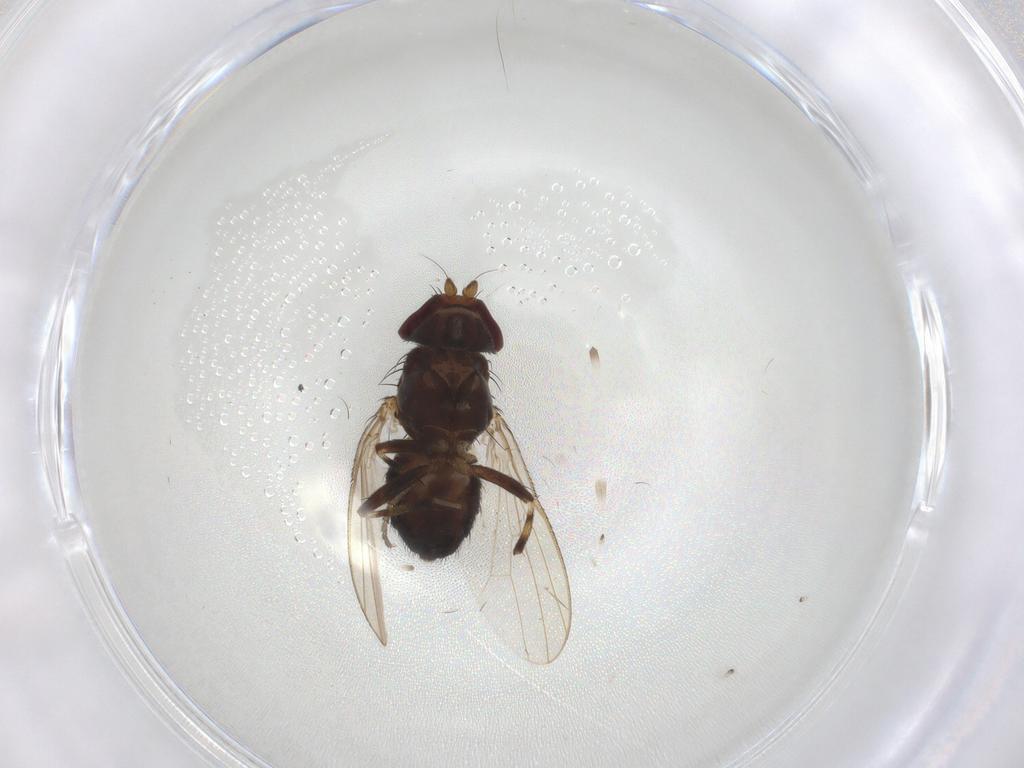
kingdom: Animalia
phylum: Arthropoda
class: Insecta
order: Diptera
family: Heleomyzidae
